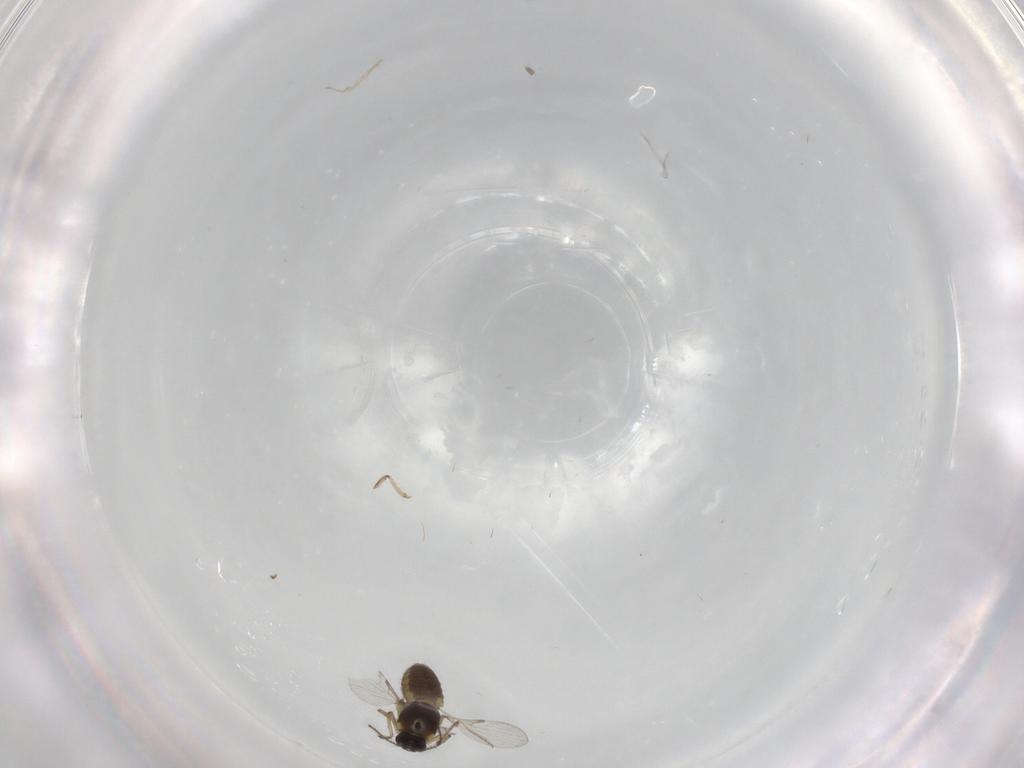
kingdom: Animalia
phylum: Arthropoda
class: Insecta
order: Diptera
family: Ceratopogonidae
